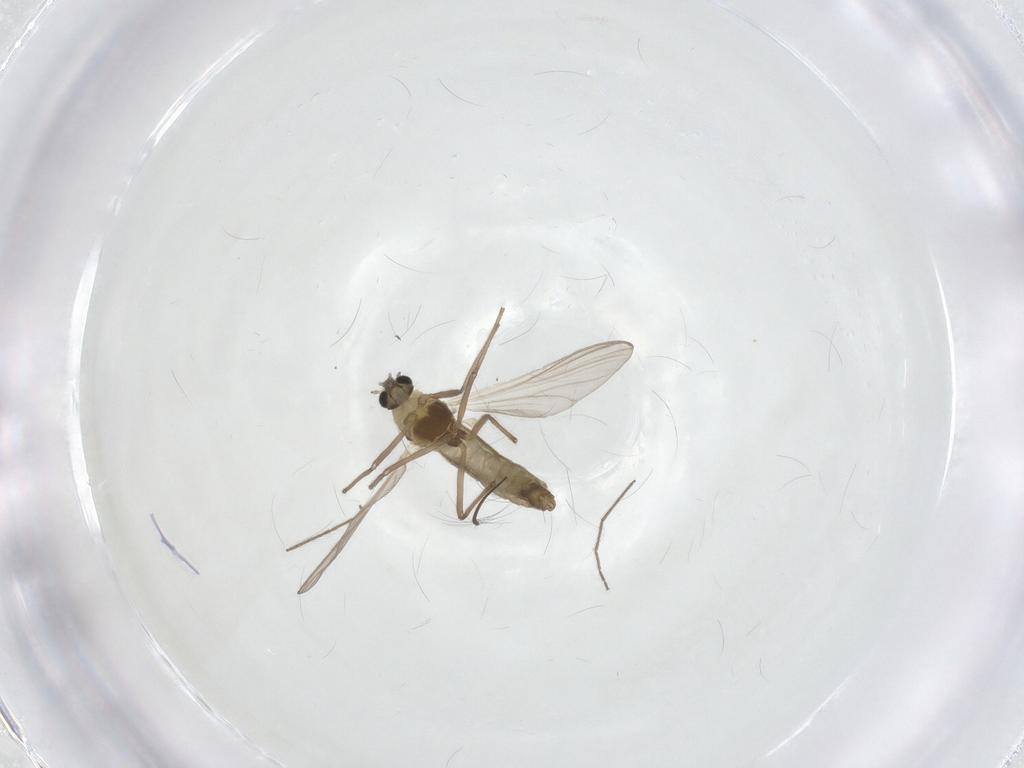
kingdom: Animalia
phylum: Arthropoda
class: Insecta
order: Diptera
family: Chironomidae
